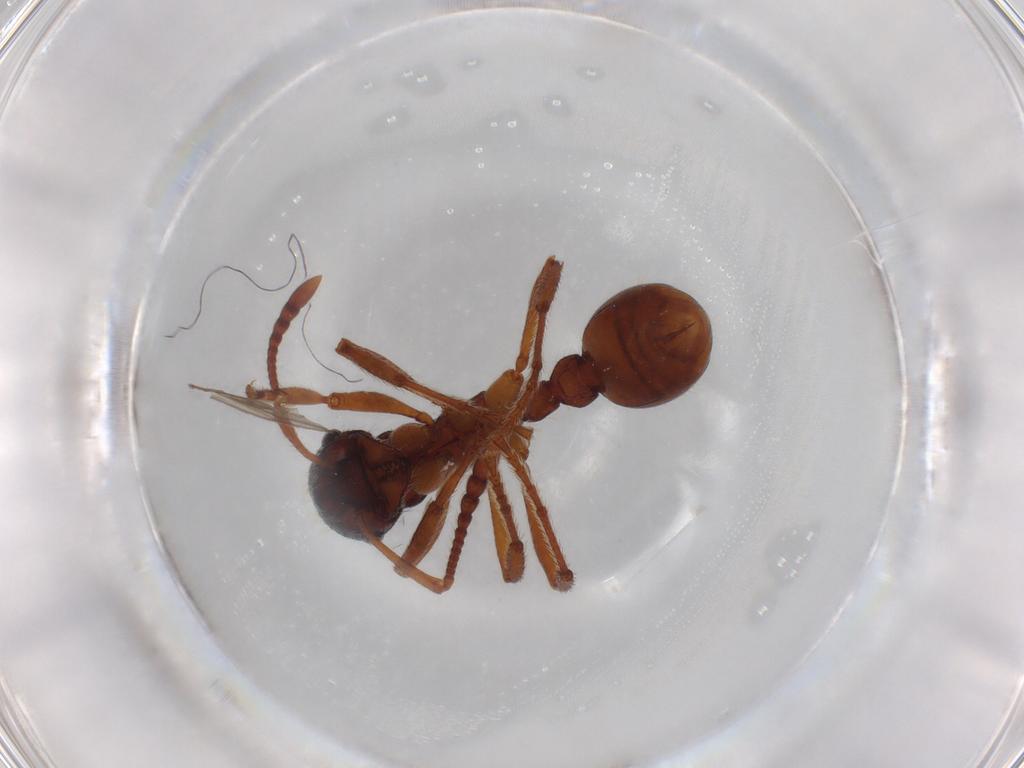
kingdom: Animalia
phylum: Arthropoda
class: Insecta
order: Hymenoptera
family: Formicidae
